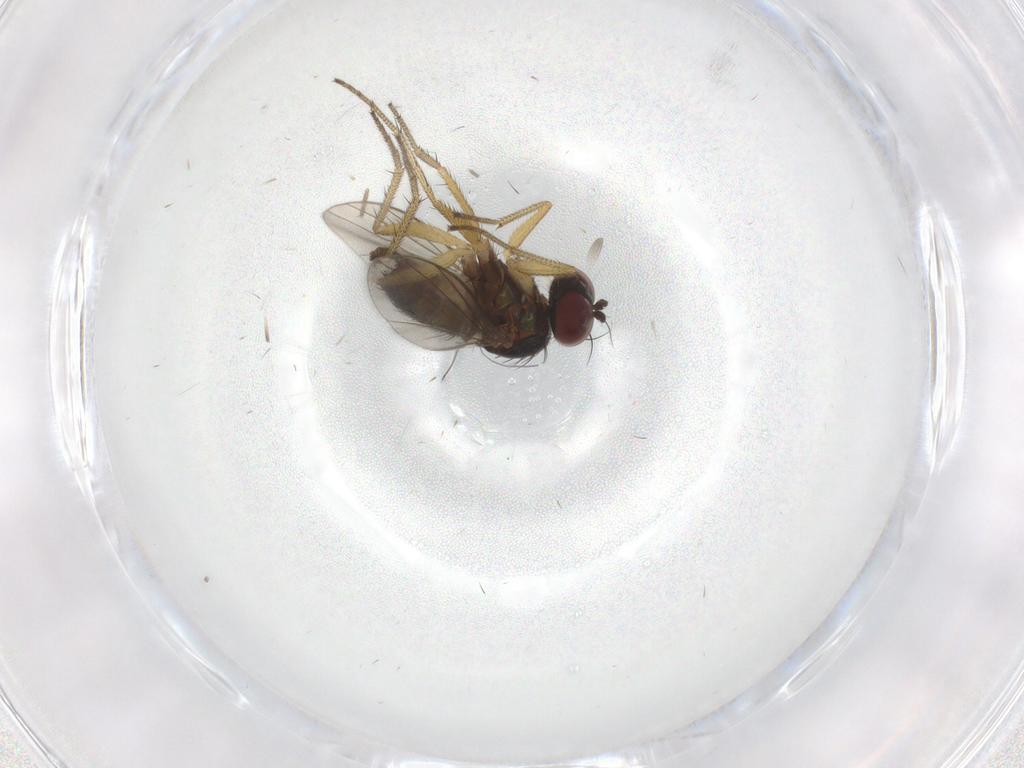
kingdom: Animalia
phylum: Arthropoda
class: Insecta
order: Diptera
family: Dolichopodidae
